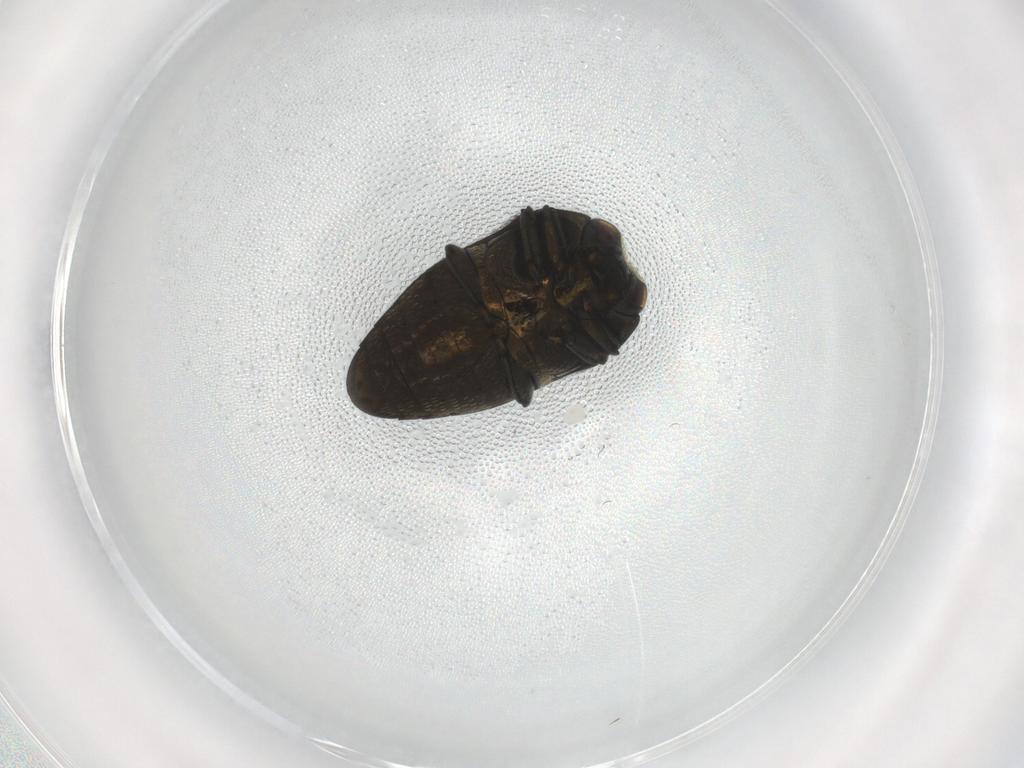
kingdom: Animalia
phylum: Arthropoda
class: Insecta
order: Coleoptera
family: Buprestidae
